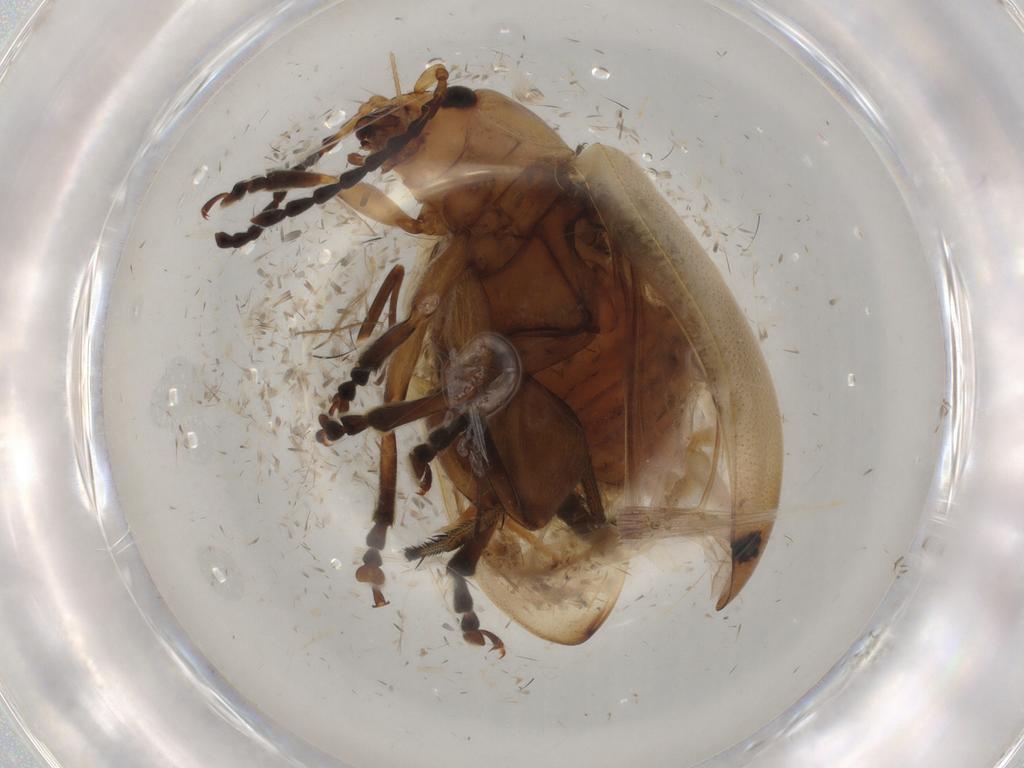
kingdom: Animalia
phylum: Arthropoda
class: Insecta
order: Coleoptera
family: Chrysomelidae
